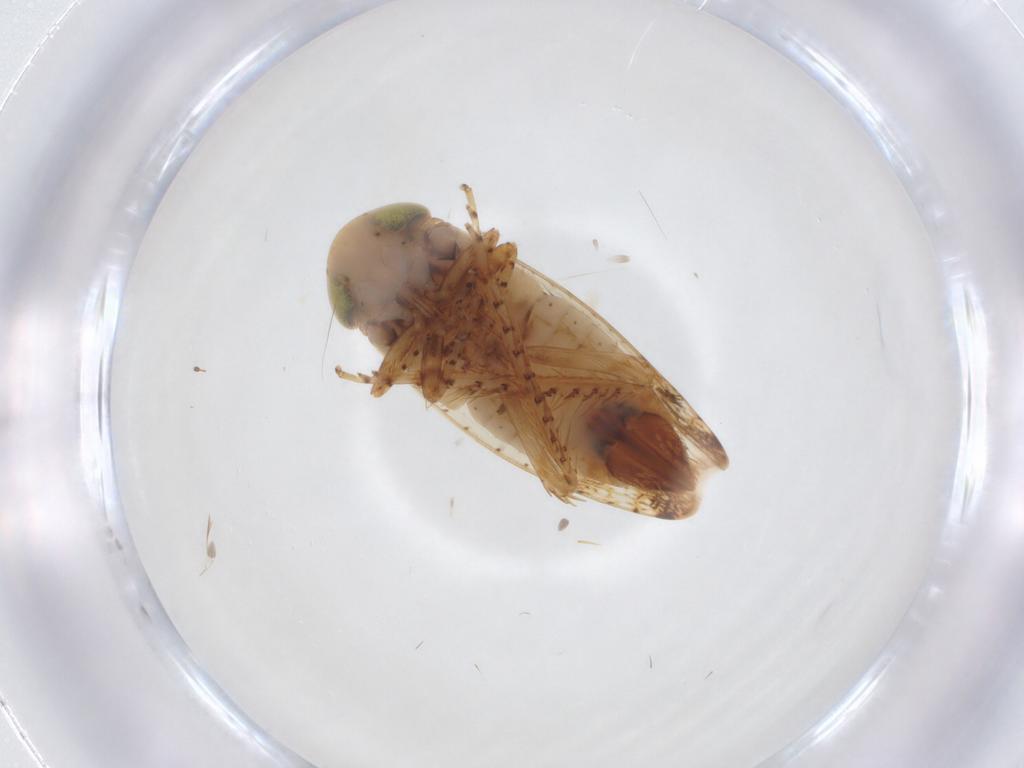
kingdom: Animalia
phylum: Arthropoda
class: Insecta
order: Hemiptera
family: Cicadellidae
